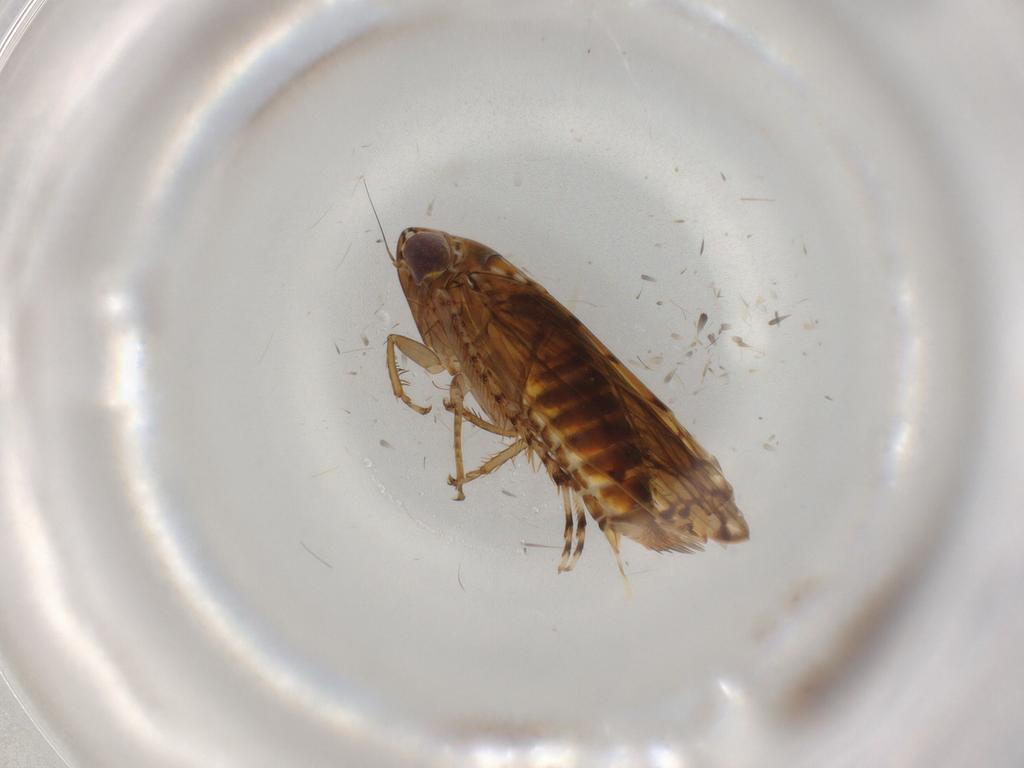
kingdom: Animalia
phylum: Arthropoda
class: Insecta
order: Hemiptera
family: Cicadellidae
